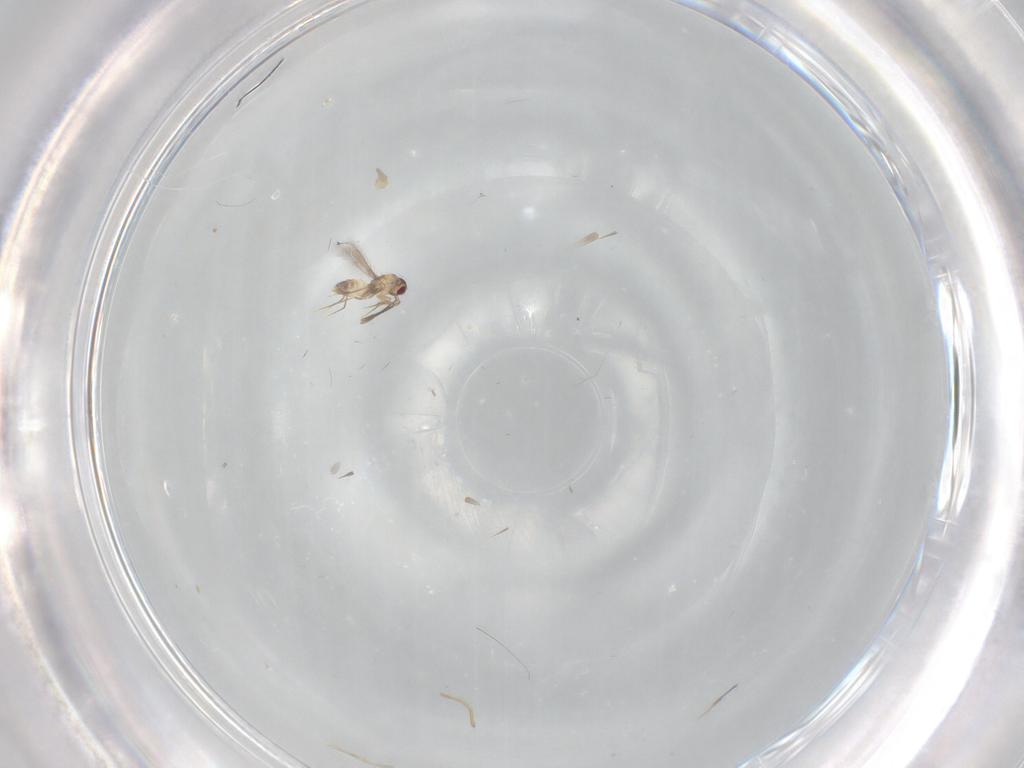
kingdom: Animalia
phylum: Arthropoda
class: Insecta
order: Hymenoptera
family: Mymaridae
